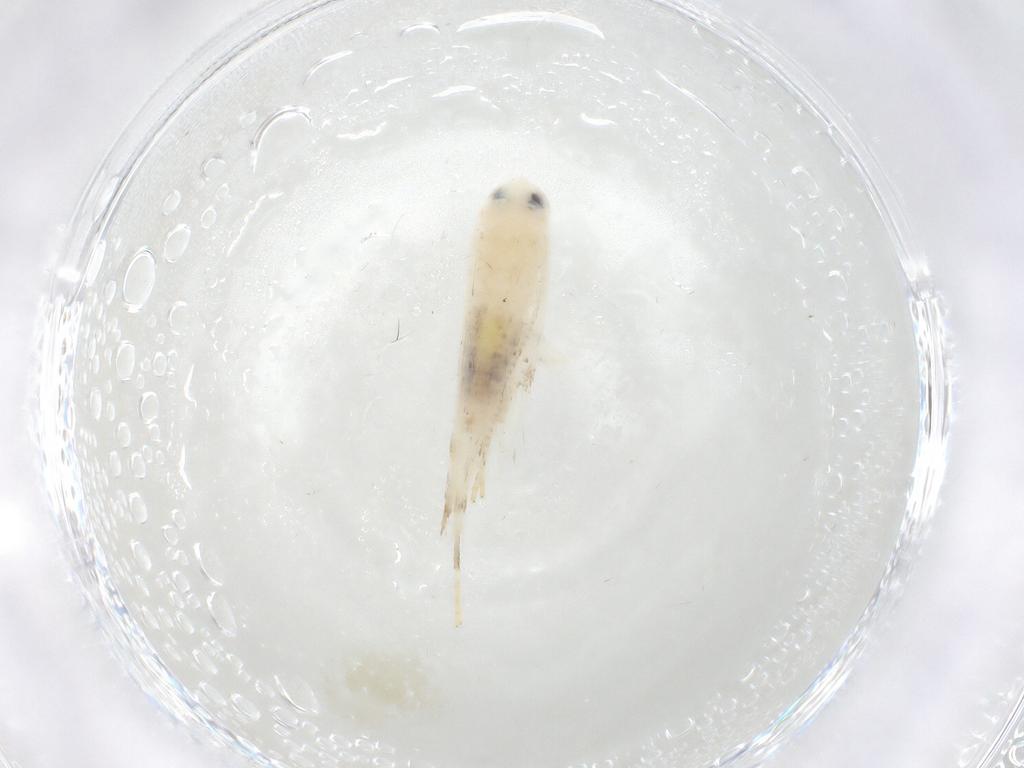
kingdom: Animalia
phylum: Arthropoda
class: Insecta
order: Lepidoptera
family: Geometridae
